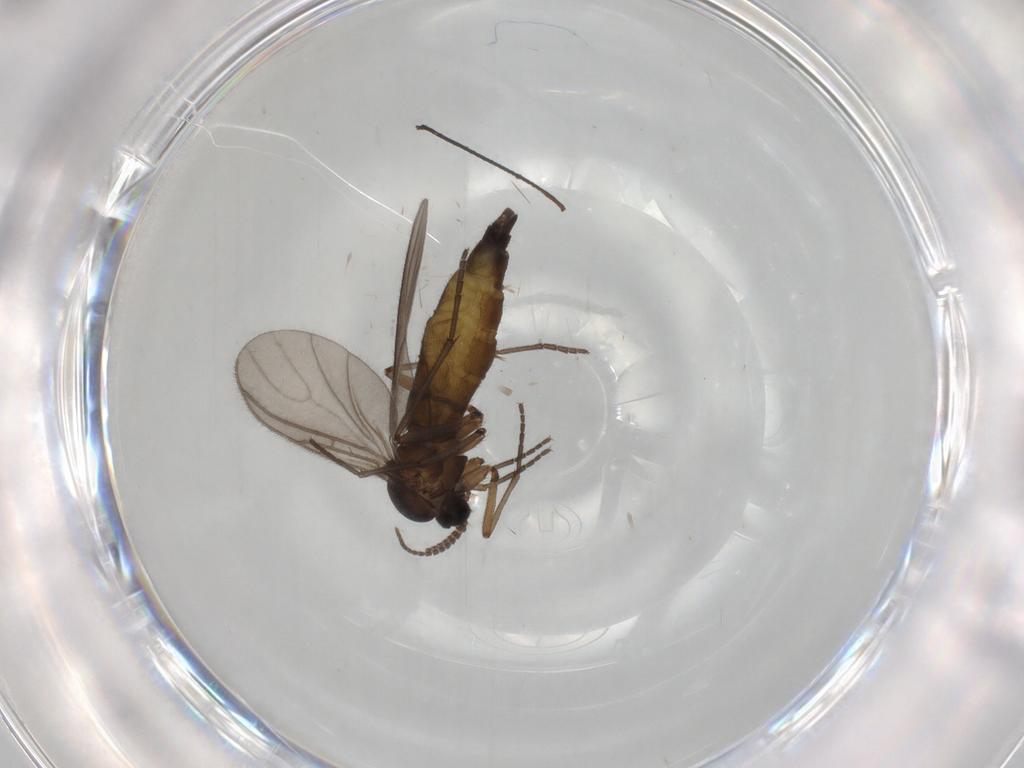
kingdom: Animalia
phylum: Arthropoda
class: Insecta
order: Diptera
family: Sciaridae
